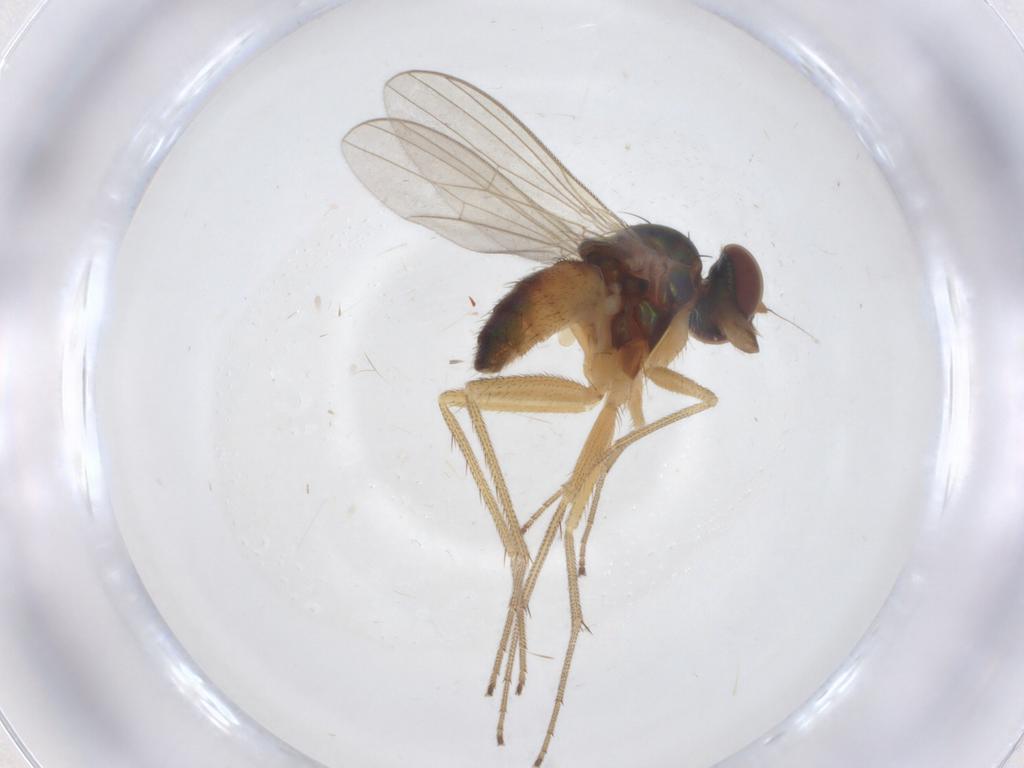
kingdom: Animalia
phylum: Arthropoda
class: Insecta
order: Diptera
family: Dolichopodidae
